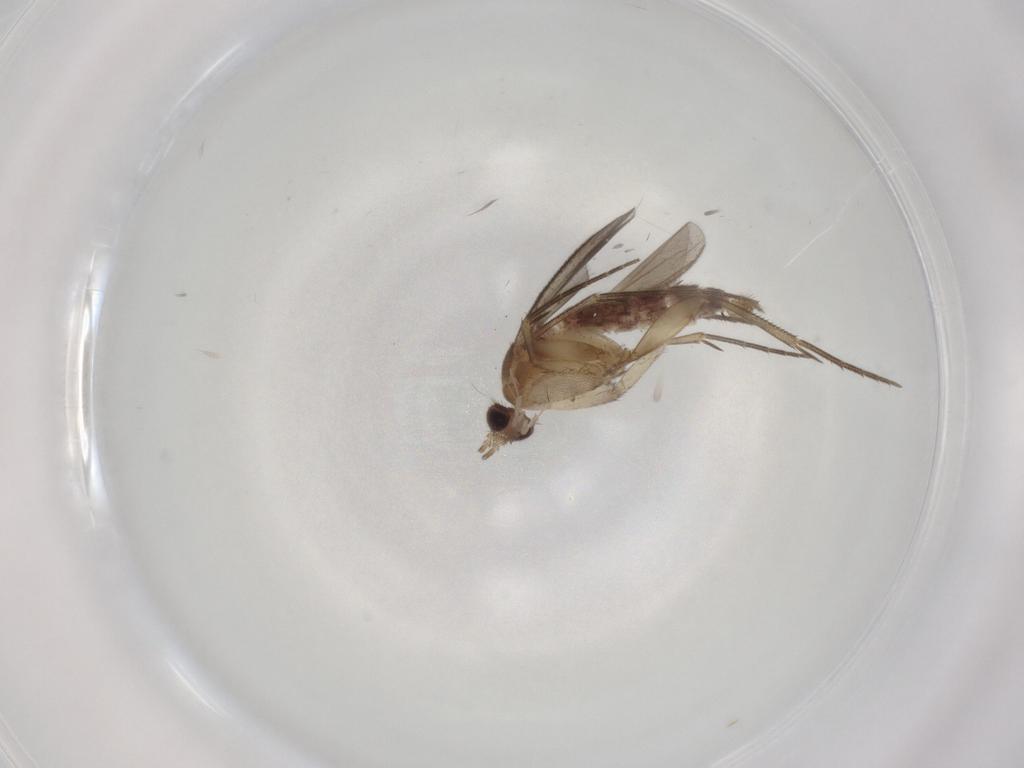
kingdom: Animalia
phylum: Arthropoda
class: Insecta
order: Diptera
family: Mycetophilidae
